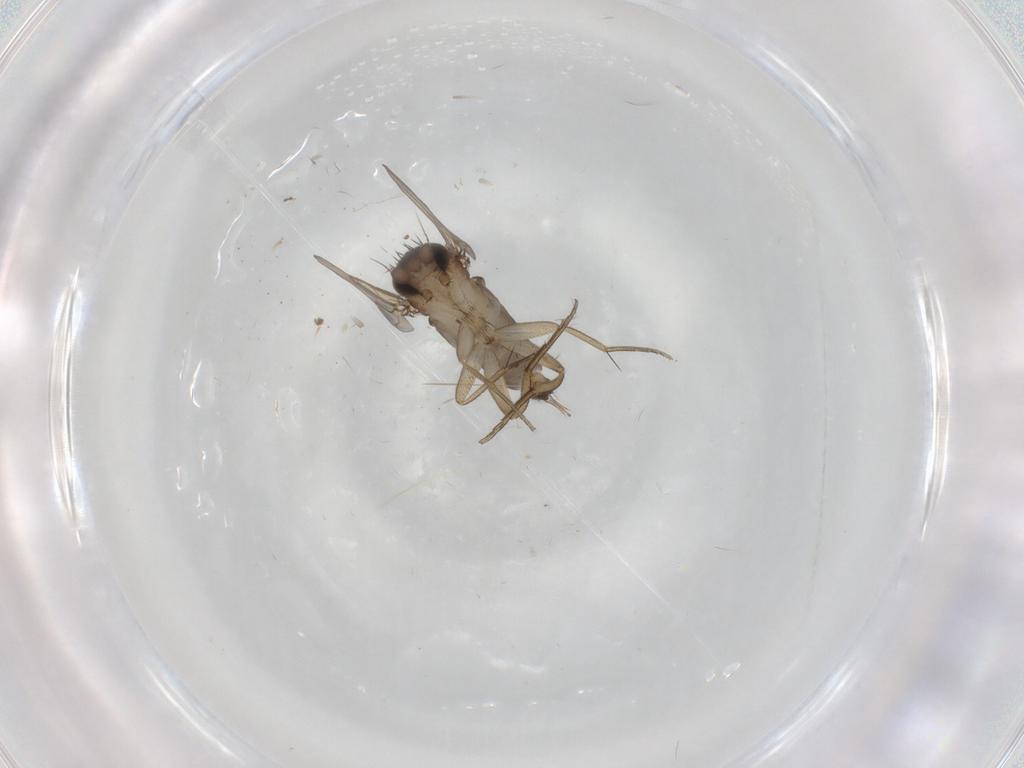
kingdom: Animalia
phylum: Arthropoda
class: Insecta
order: Diptera
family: Phoridae
